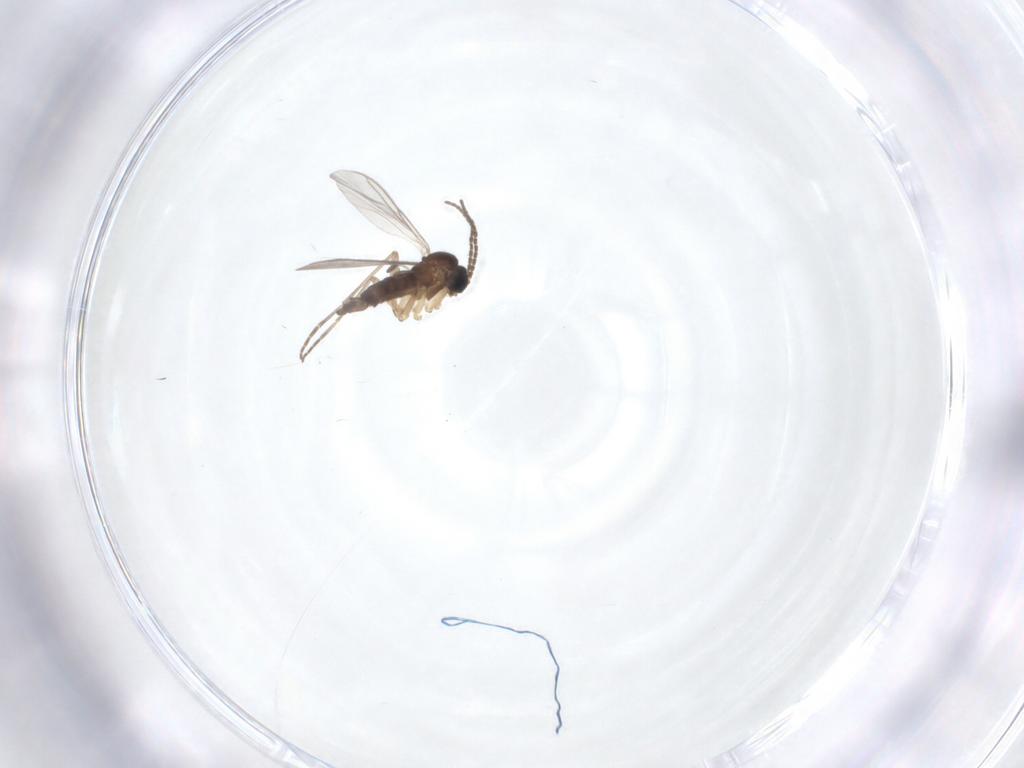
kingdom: Animalia
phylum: Arthropoda
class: Insecta
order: Diptera
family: Sciaridae
